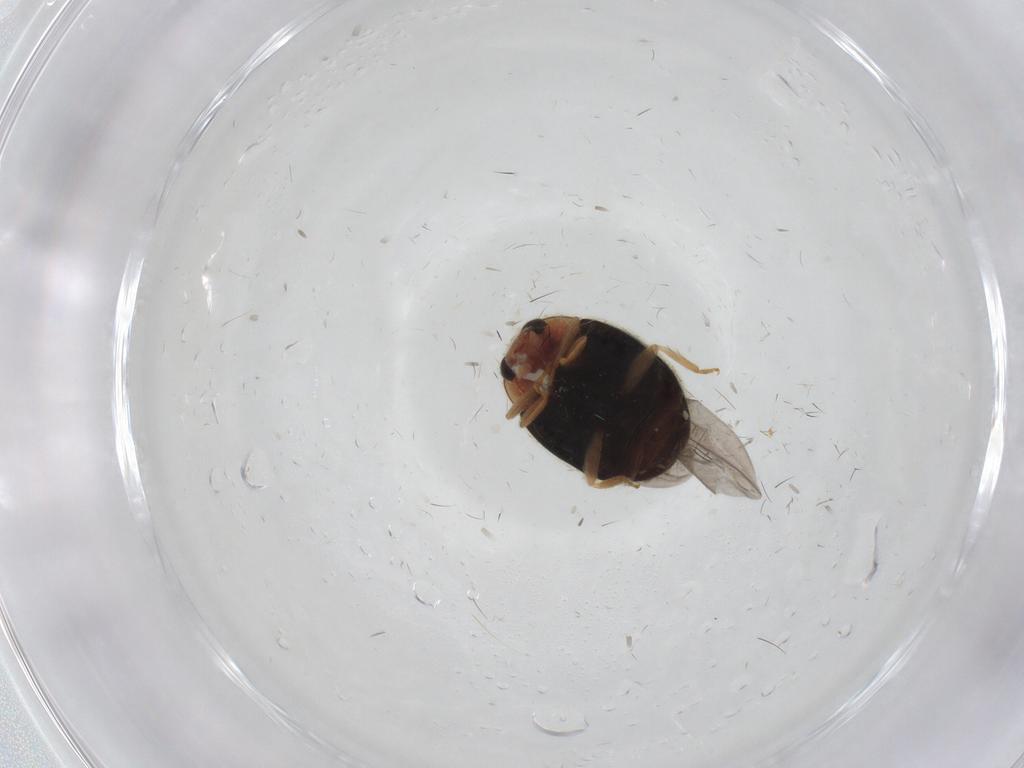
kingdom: Animalia
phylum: Arthropoda
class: Insecta
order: Coleoptera
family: Coccinellidae
